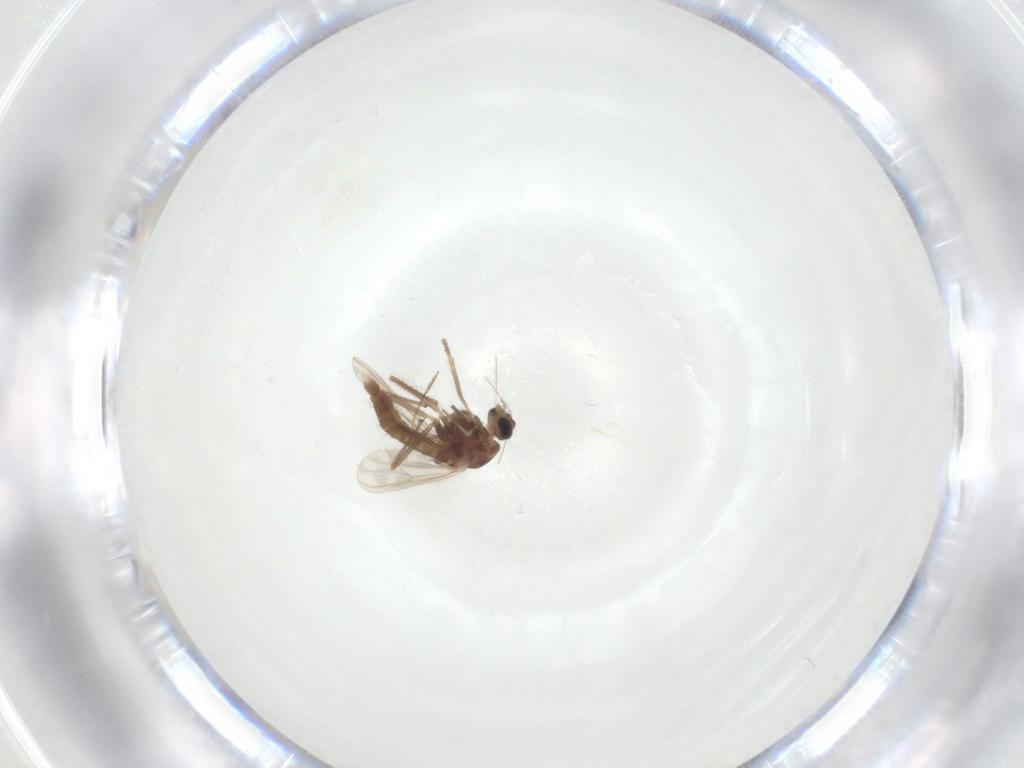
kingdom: Animalia
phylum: Arthropoda
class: Insecta
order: Diptera
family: Chironomidae
